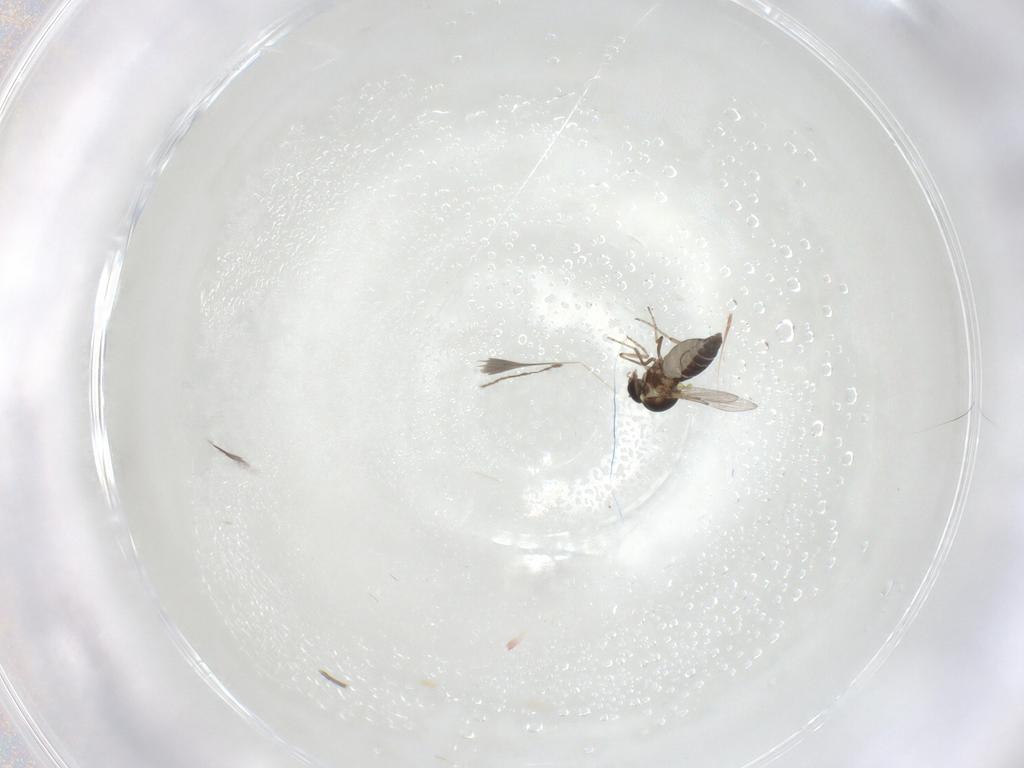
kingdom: Animalia
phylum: Arthropoda
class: Insecta
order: Diptera
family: Ceratopogonidae
